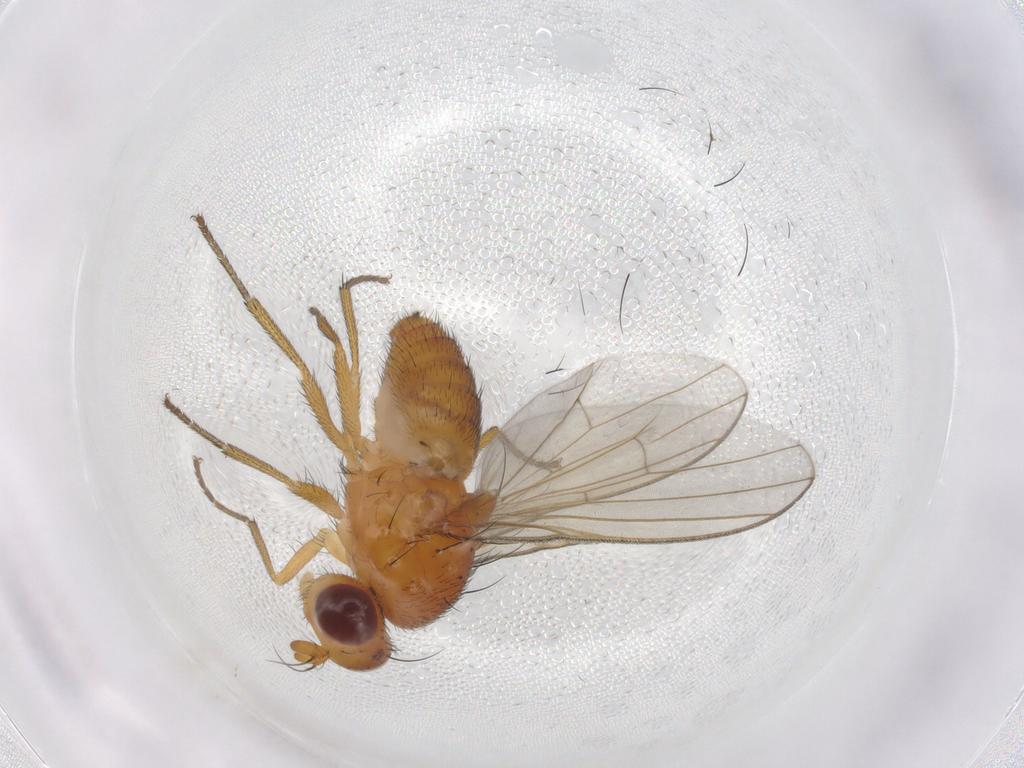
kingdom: Animalia
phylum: Arthropoda
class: Insecta
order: Diptera
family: Lauxaniidae
